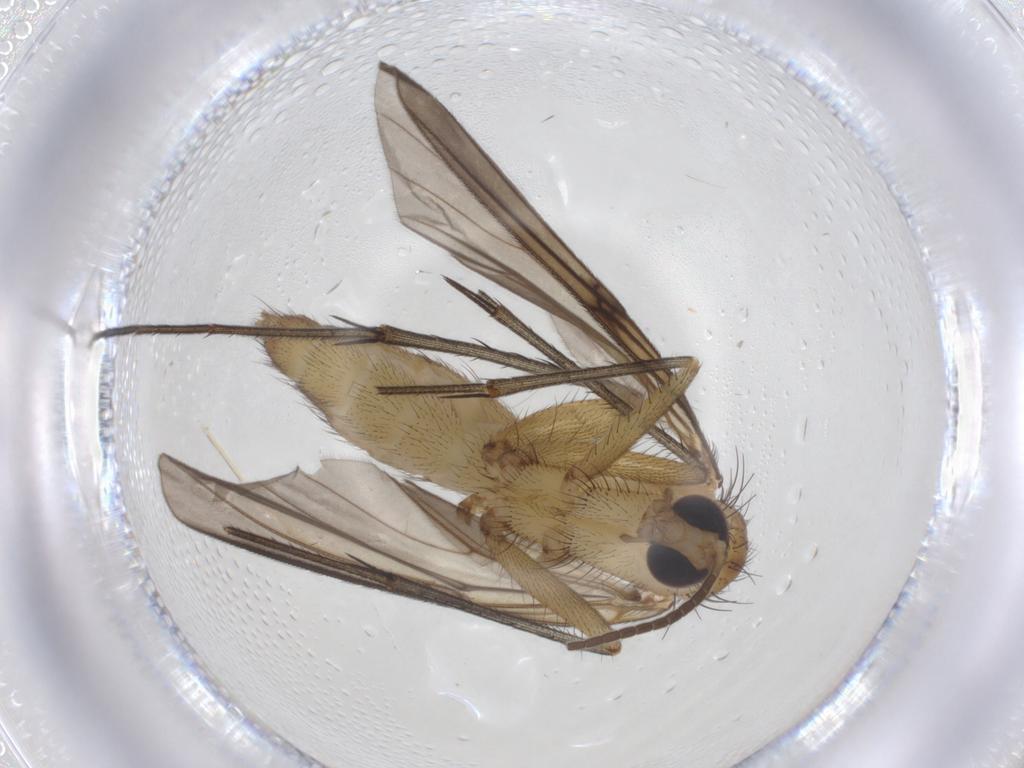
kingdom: Animalia
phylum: Arthropoda
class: Insecta
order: Diptera
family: Mycetophilidae
